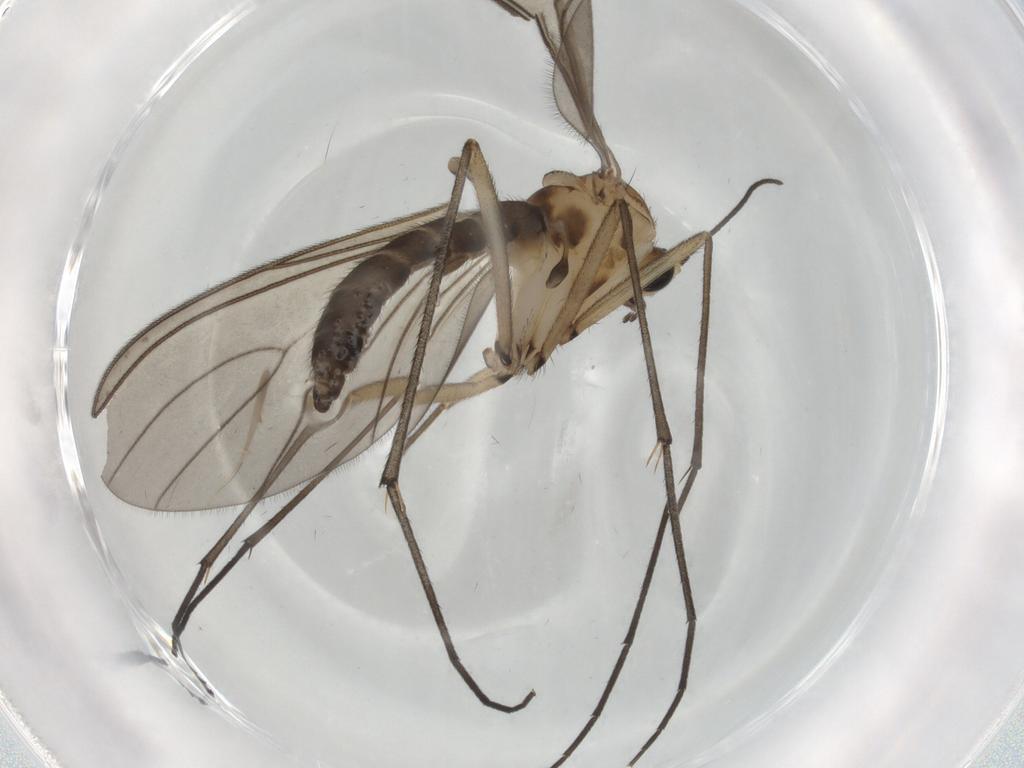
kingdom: Animalia
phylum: Arthropoda
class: Insecta
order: Diptera
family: Sciaridae
